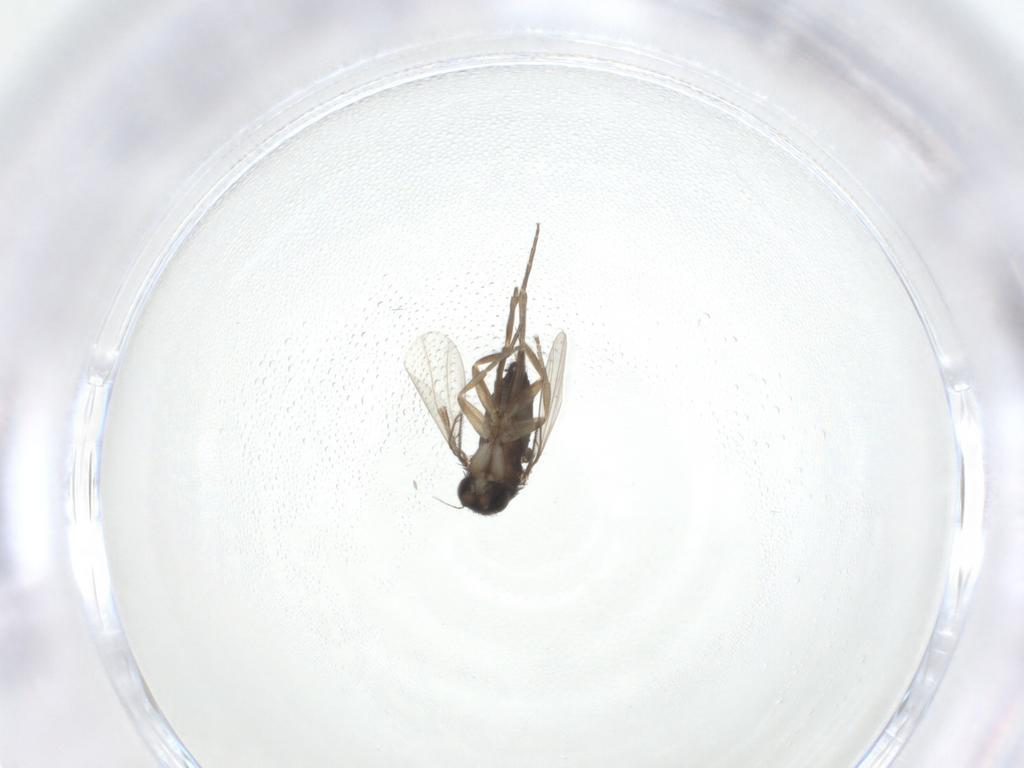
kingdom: Animalia
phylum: Arthropoda
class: Insecta
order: Diptera
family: Phoridae
